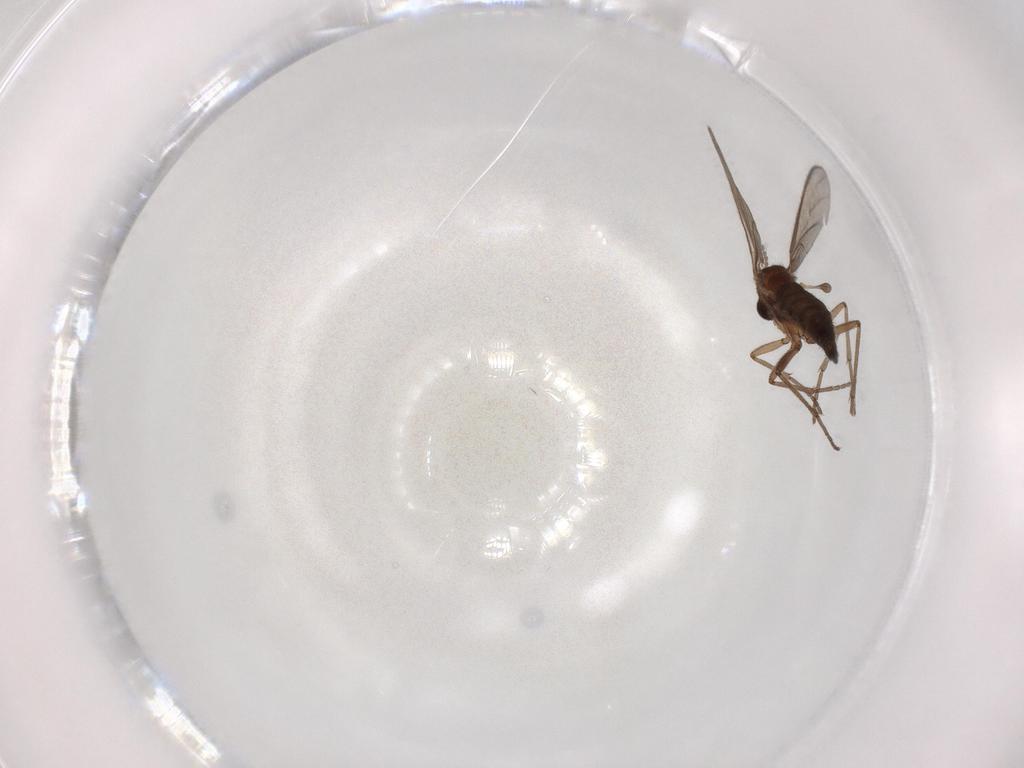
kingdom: Animalia
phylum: Arthropoda
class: Insecta
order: Diptera
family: Sciaridae
